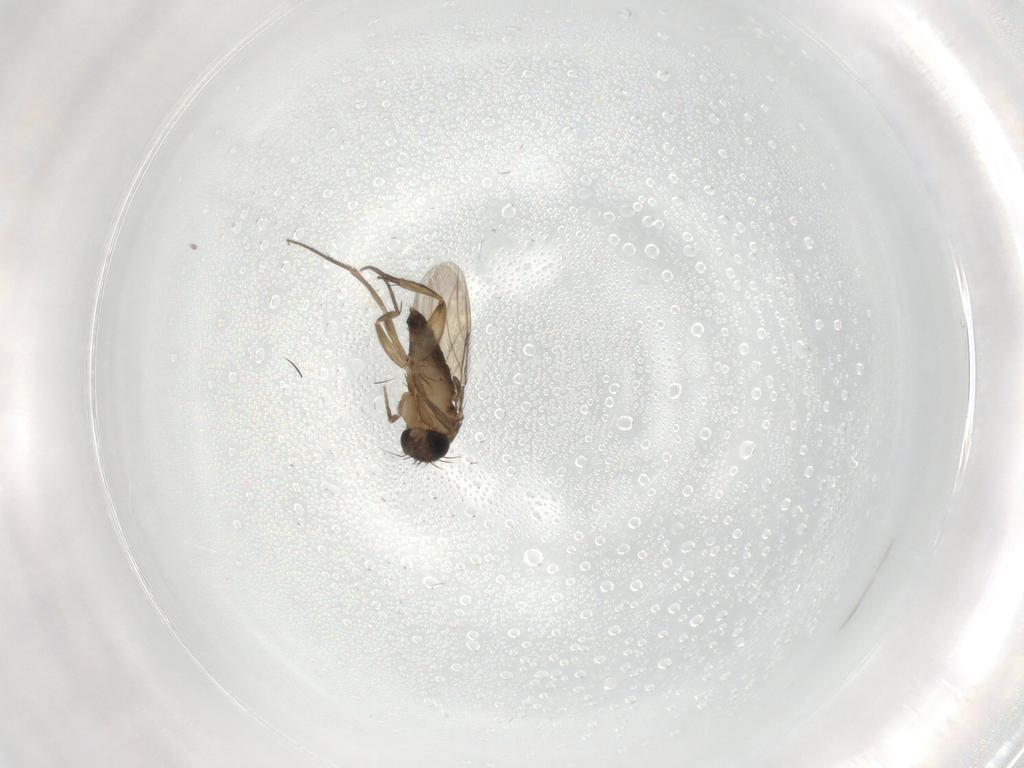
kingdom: Animalia
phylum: Arthropoda
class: Insecta
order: Diptera
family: Phoridae
